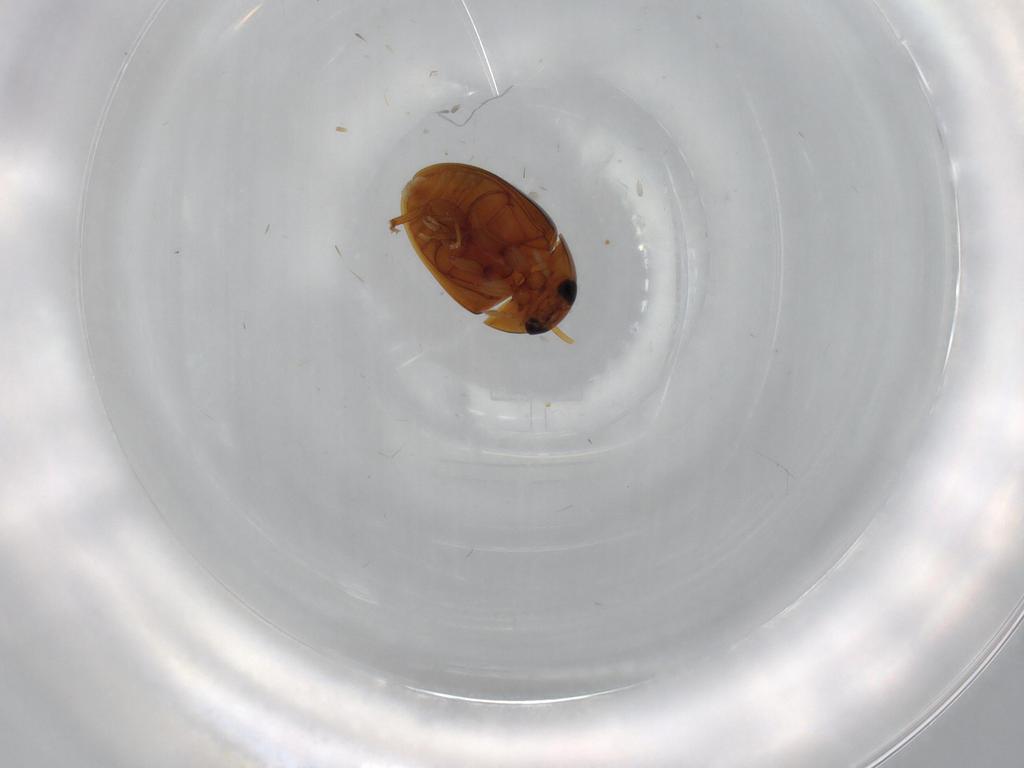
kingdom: Animalia
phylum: Arthropoda
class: Insecta
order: Coleoptera
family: Phalacridae
